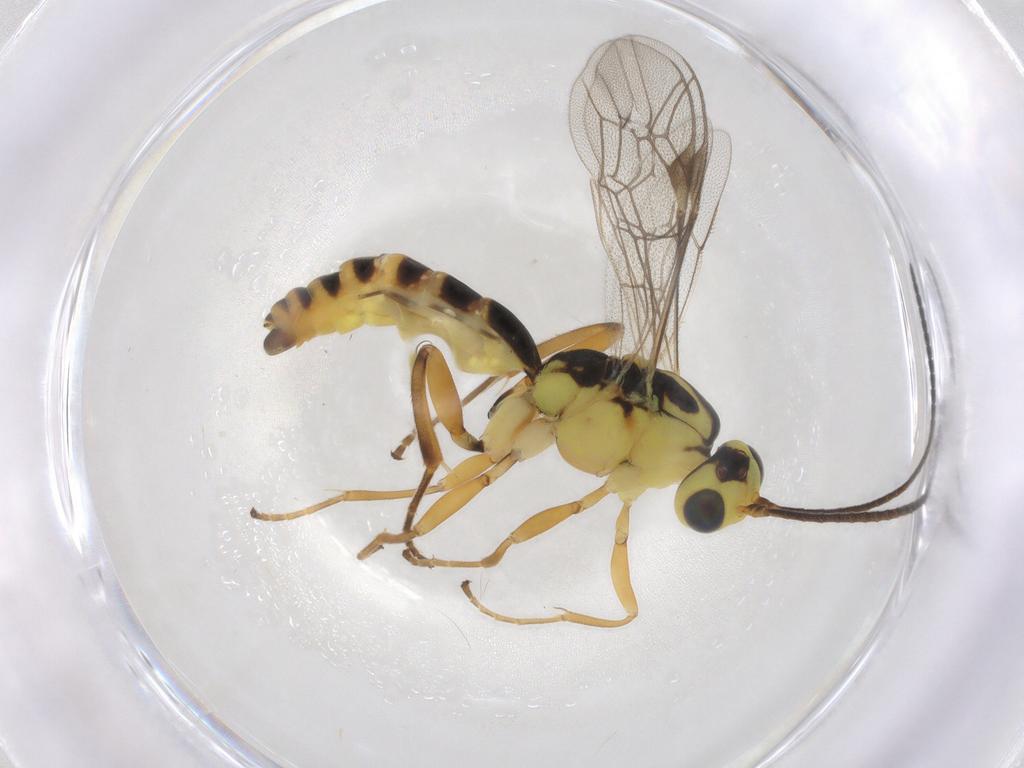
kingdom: Animalia
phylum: Arthropoda
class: Insecta
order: Hymenoptera
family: Ichneumonidae
